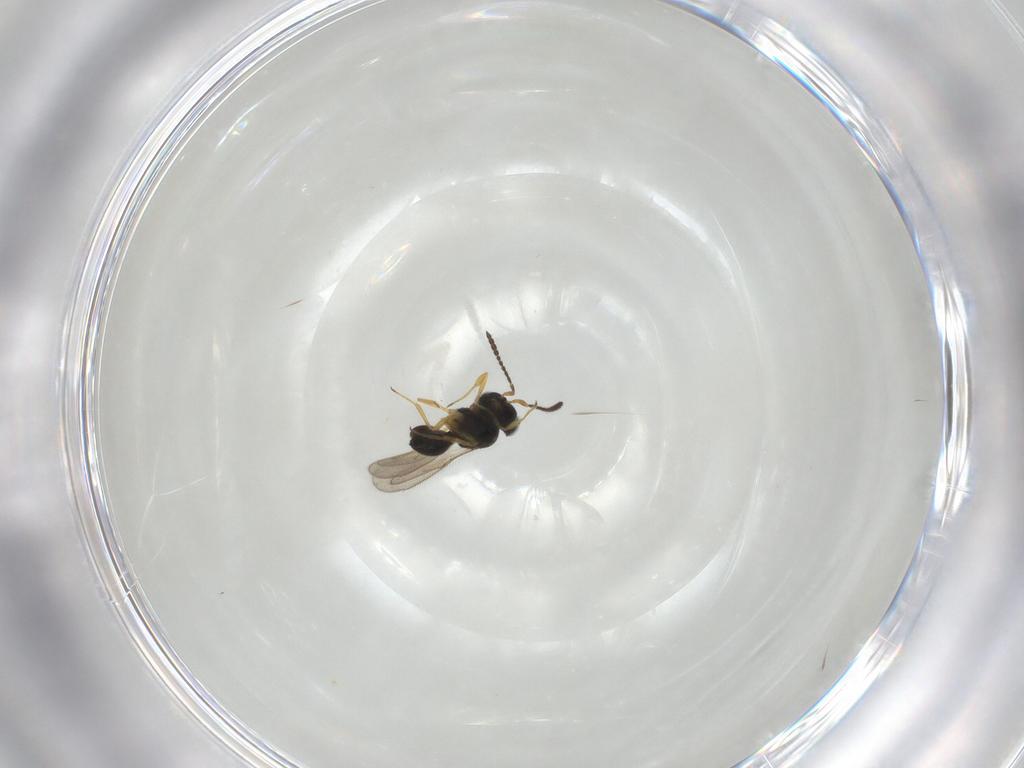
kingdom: Animalia
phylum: Arthropoda
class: Insecta
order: Hymenoptera
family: Scelionidae
